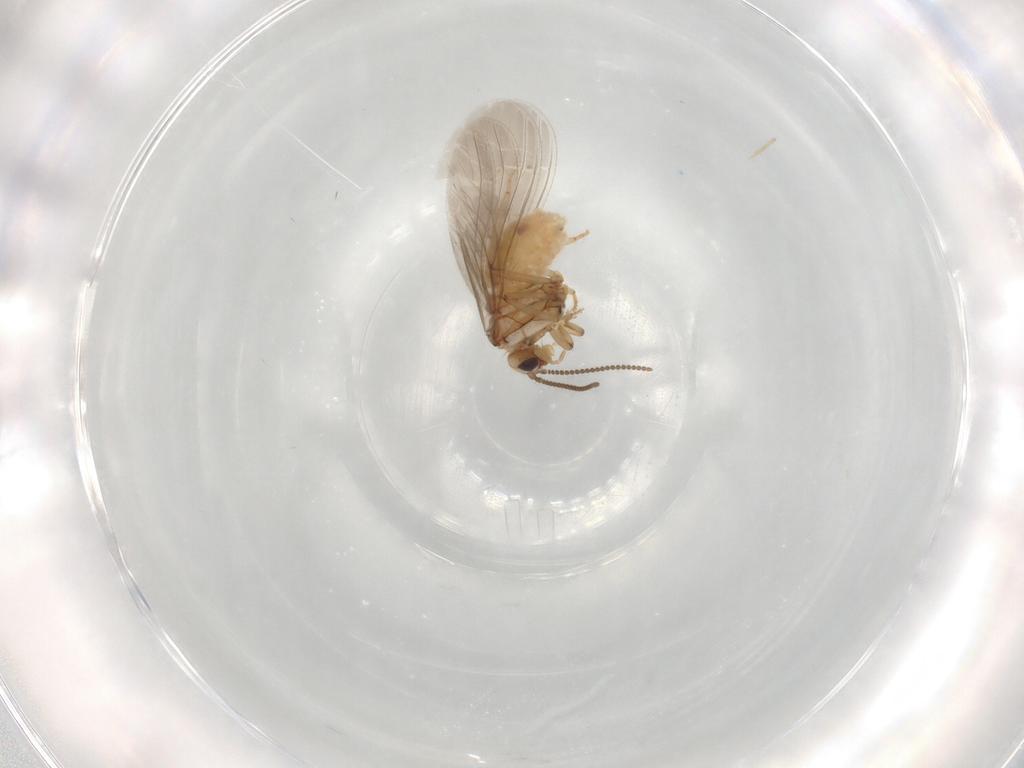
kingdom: Animalia
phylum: Arthropoda
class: Insecta
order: Neuroptera
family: Coniopterygidae
